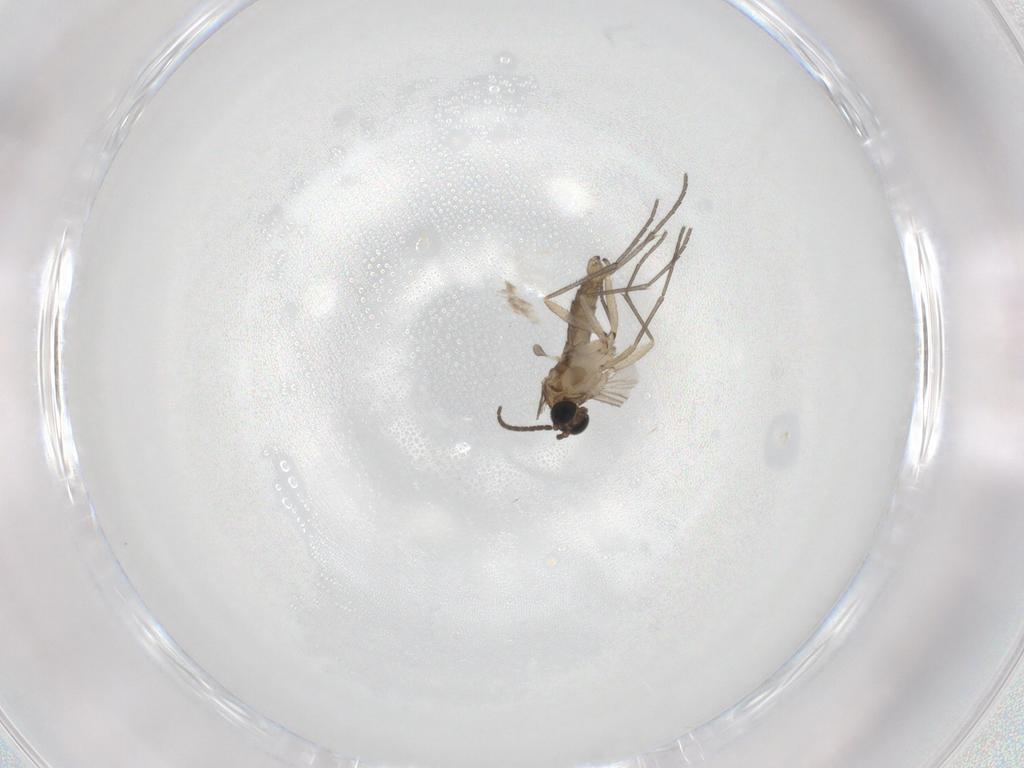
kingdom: Animalia
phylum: Arthropoda
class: Insecta
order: Diptera
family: Sciaridae
